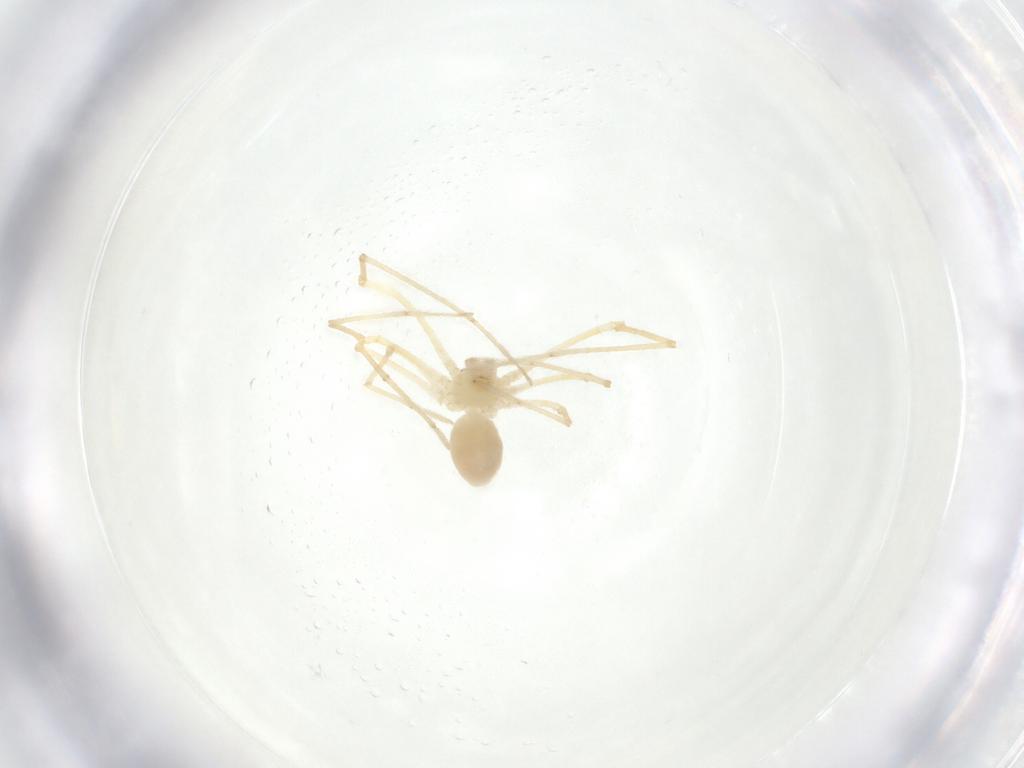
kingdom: Animalia
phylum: Arthropoda
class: Arachnida
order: Araneae
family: Pholcidae
